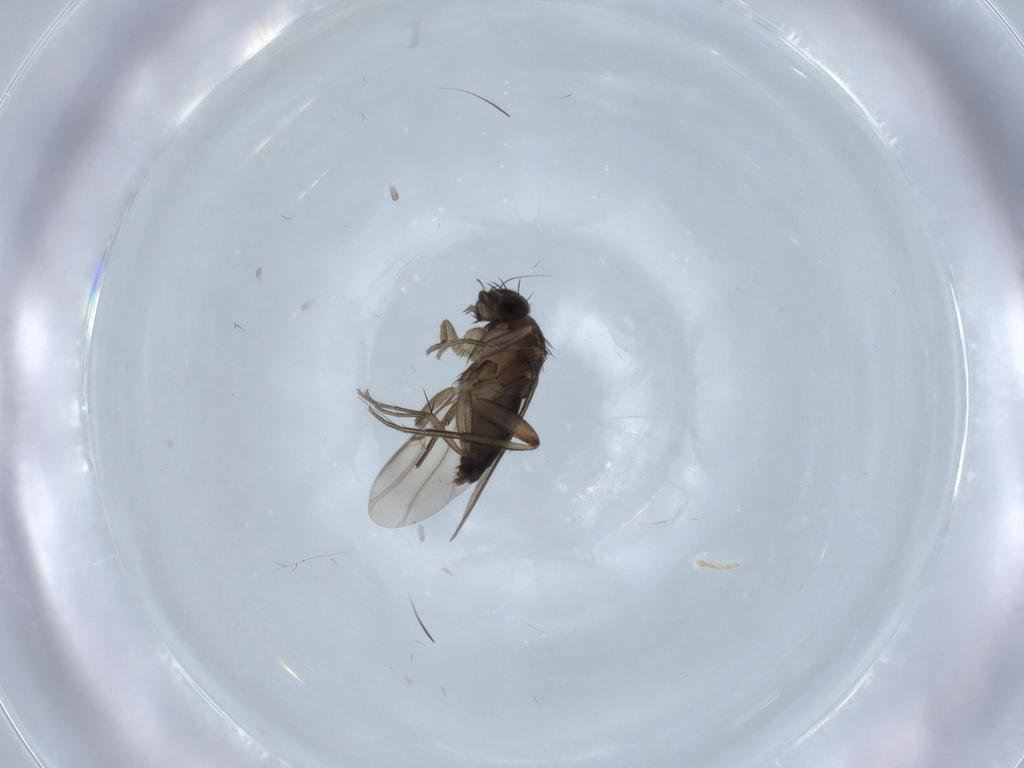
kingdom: Animalia
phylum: Arthropoda
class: Insecta
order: Diptera
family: Phoridae
